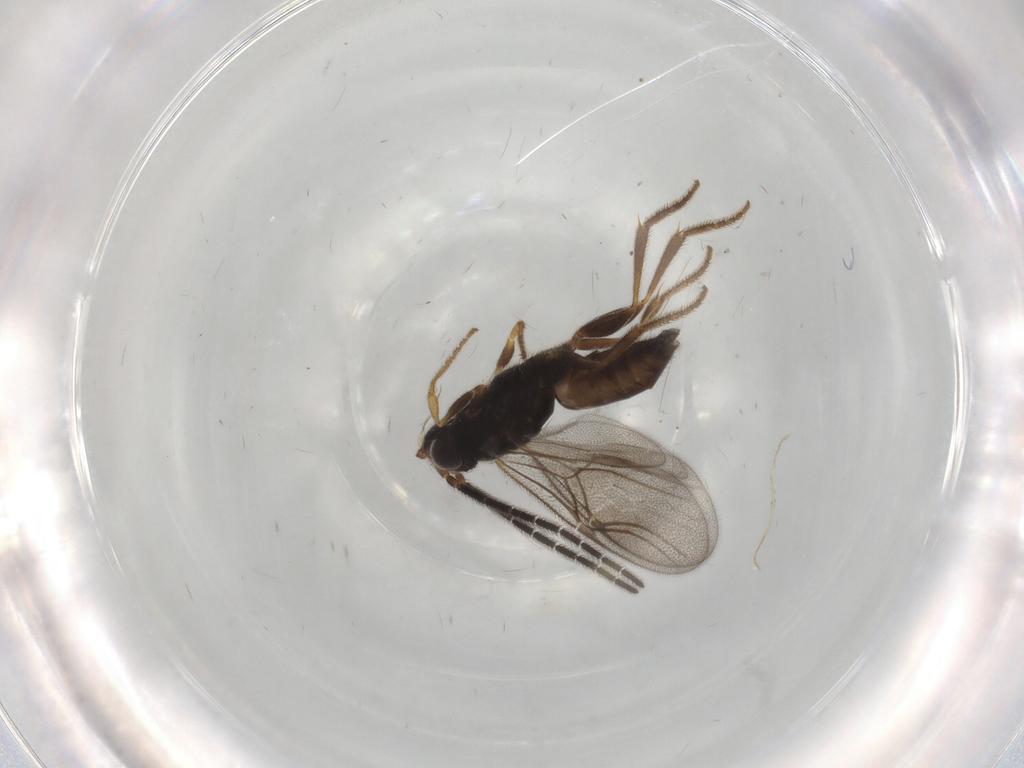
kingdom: Animalia
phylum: Arthropoda
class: Insecta
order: Hymenoptera
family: Dryinidae
